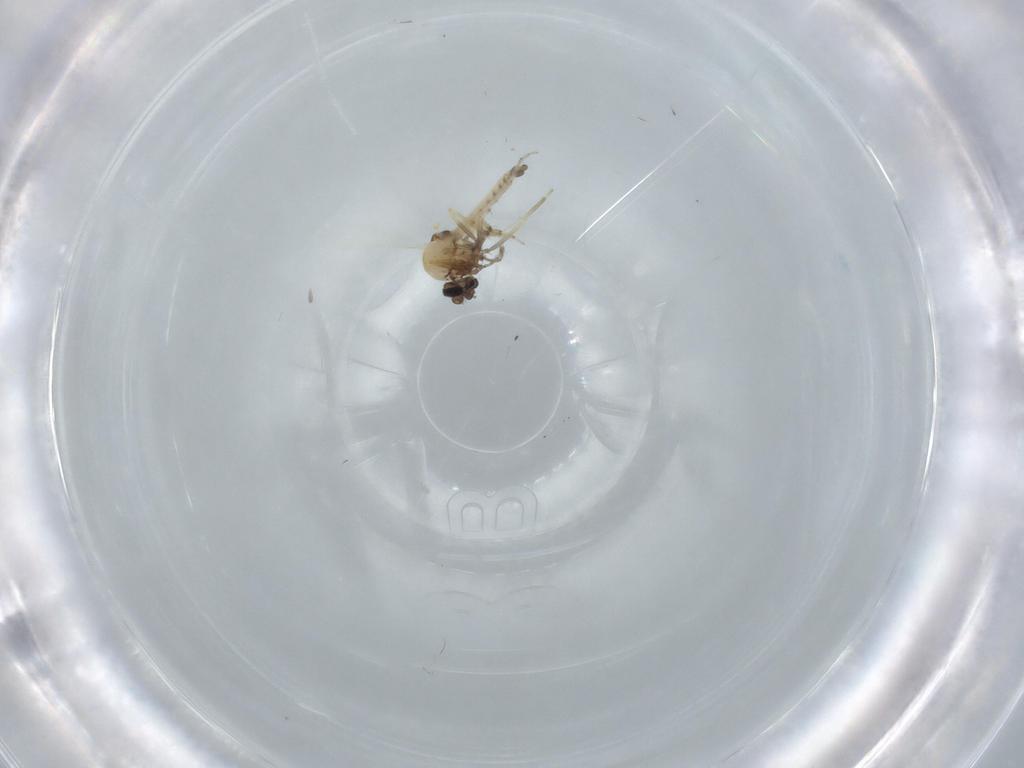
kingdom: Animalia
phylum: Arthropoda
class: Insecta
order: Diptera
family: Ceratopogonidae
